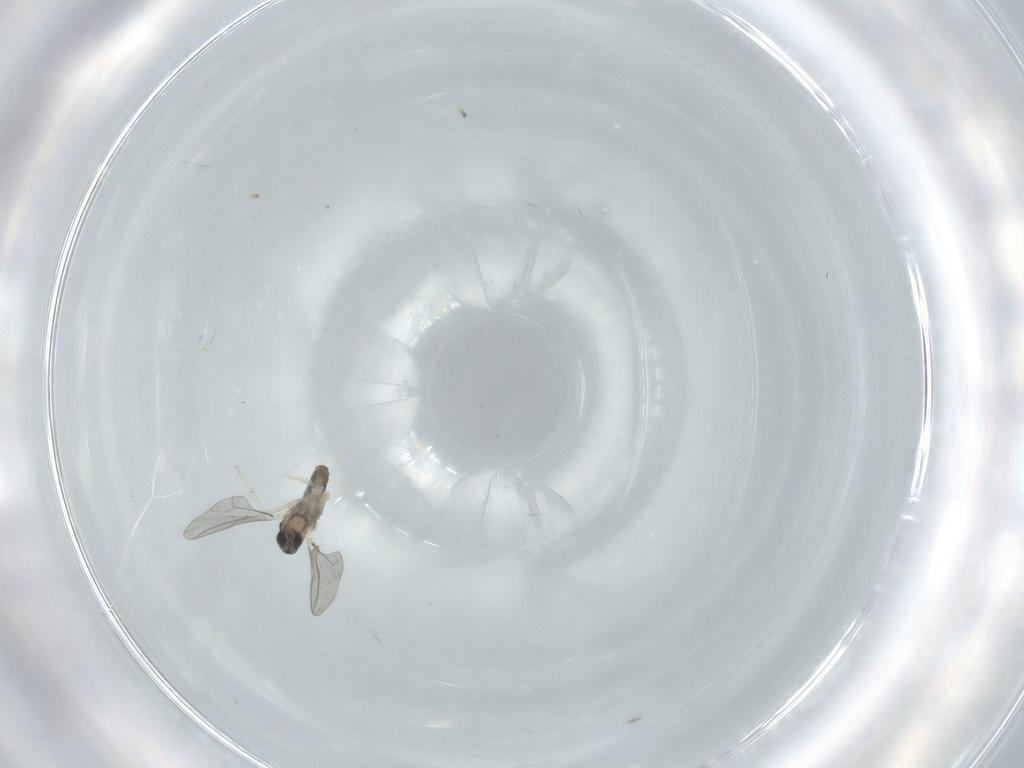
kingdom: Animalia
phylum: Arthropoda
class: Insecta
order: Diptera
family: Cecidomyiidae
